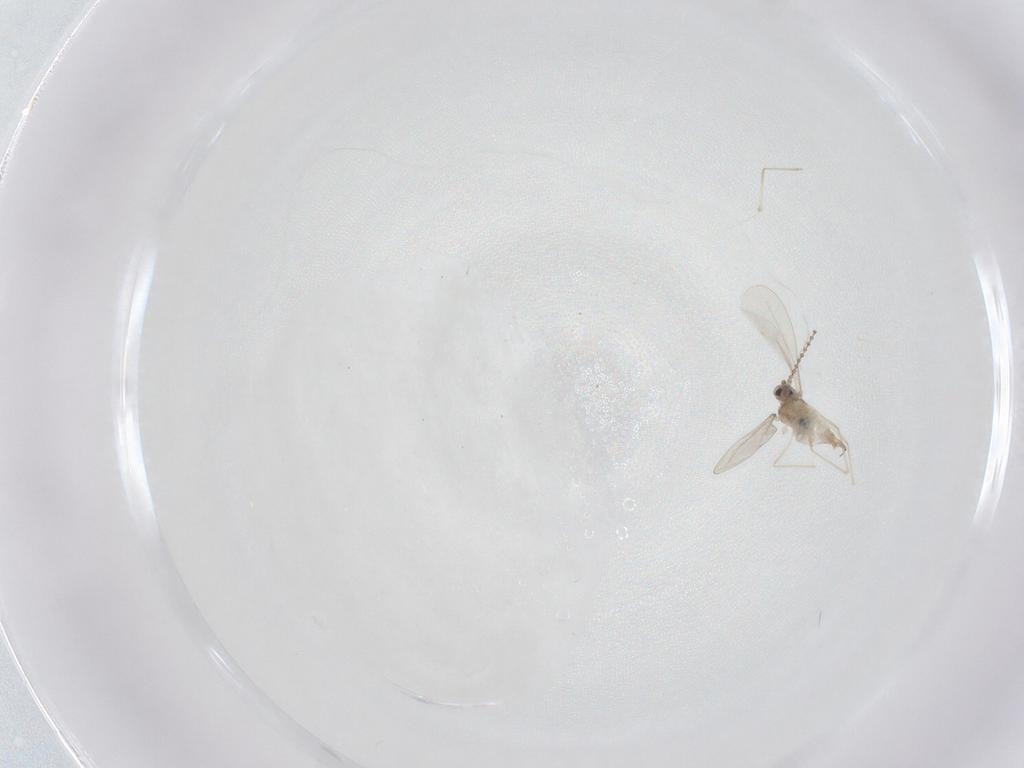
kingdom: Animalia
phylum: Arthropoda
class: Insecta
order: Diptera
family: Cecidomyiidae
